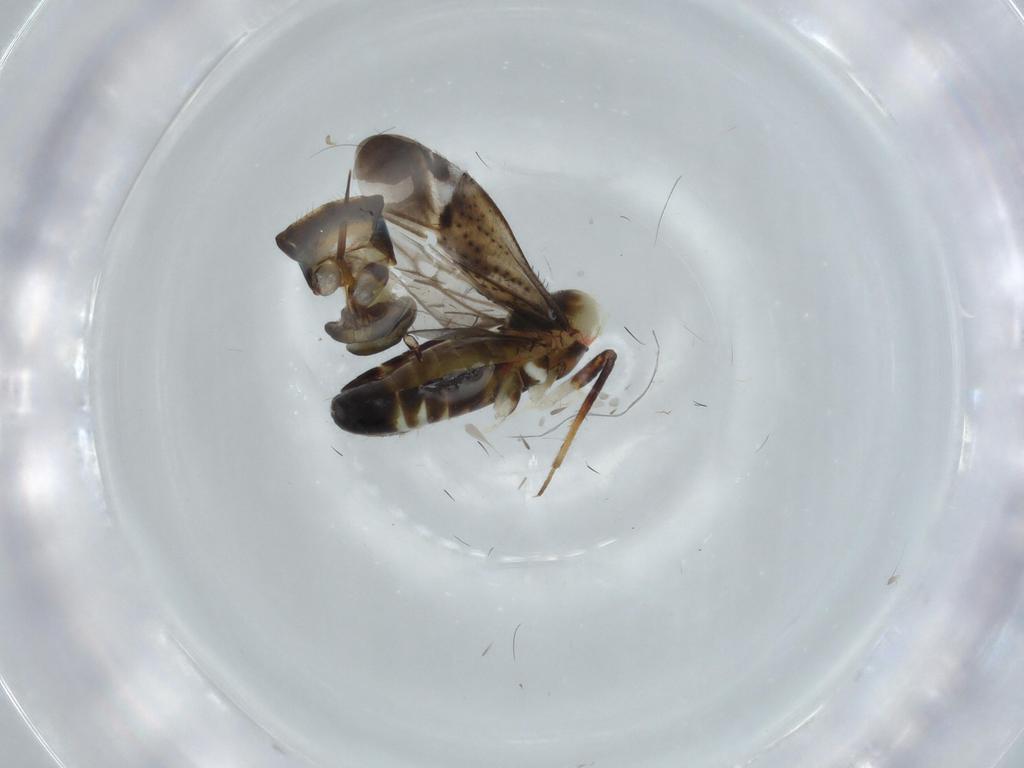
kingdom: Animalia
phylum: Arthropoda
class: Insecta
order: Hemiptera
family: Miridae
